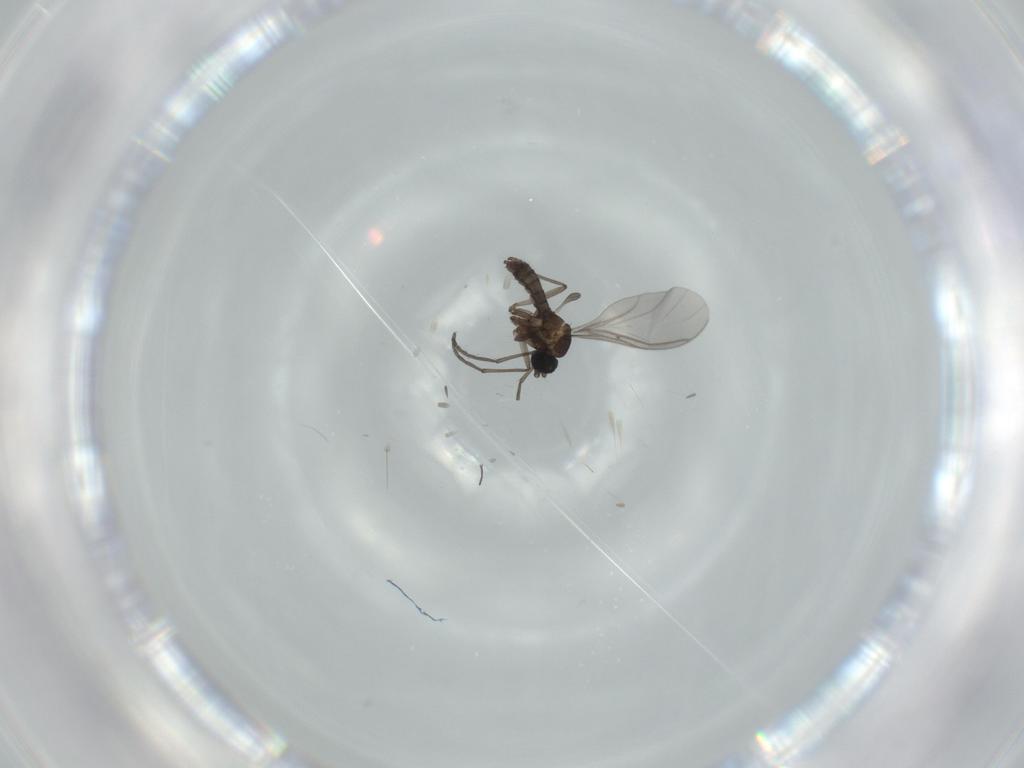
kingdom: Animalia
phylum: Arthropoda
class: Insecta
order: Diptera
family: Sciaridae
